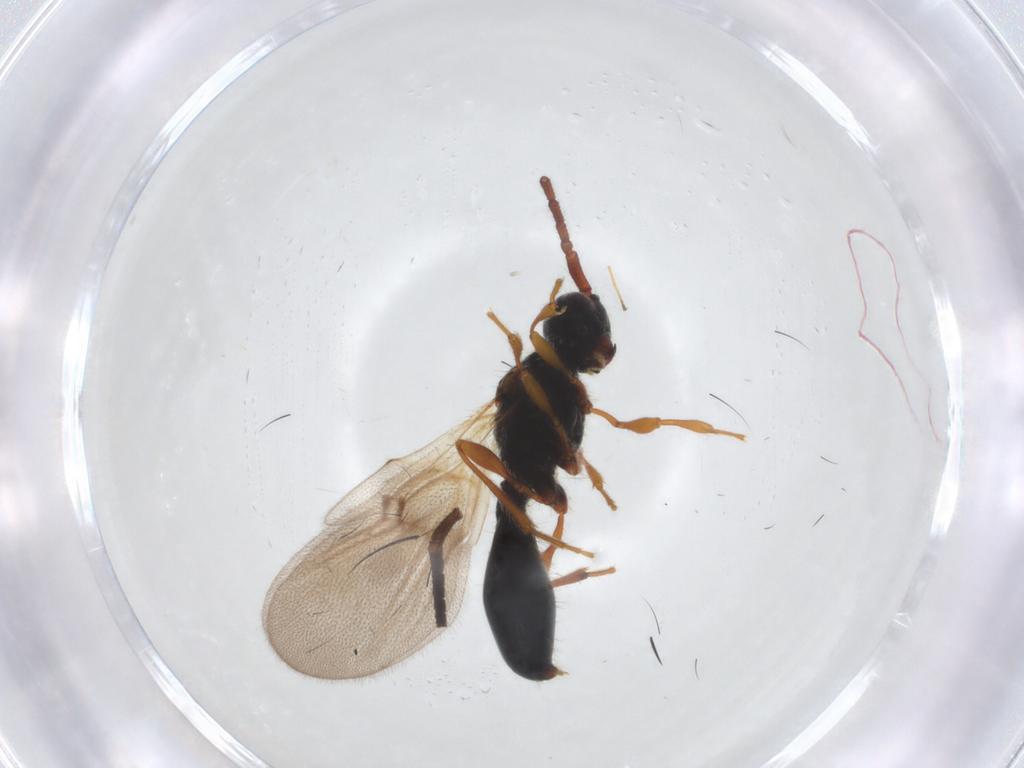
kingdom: Animalia
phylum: Arthropoda
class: Insecta
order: Hymenoptera
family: Diapriidae
